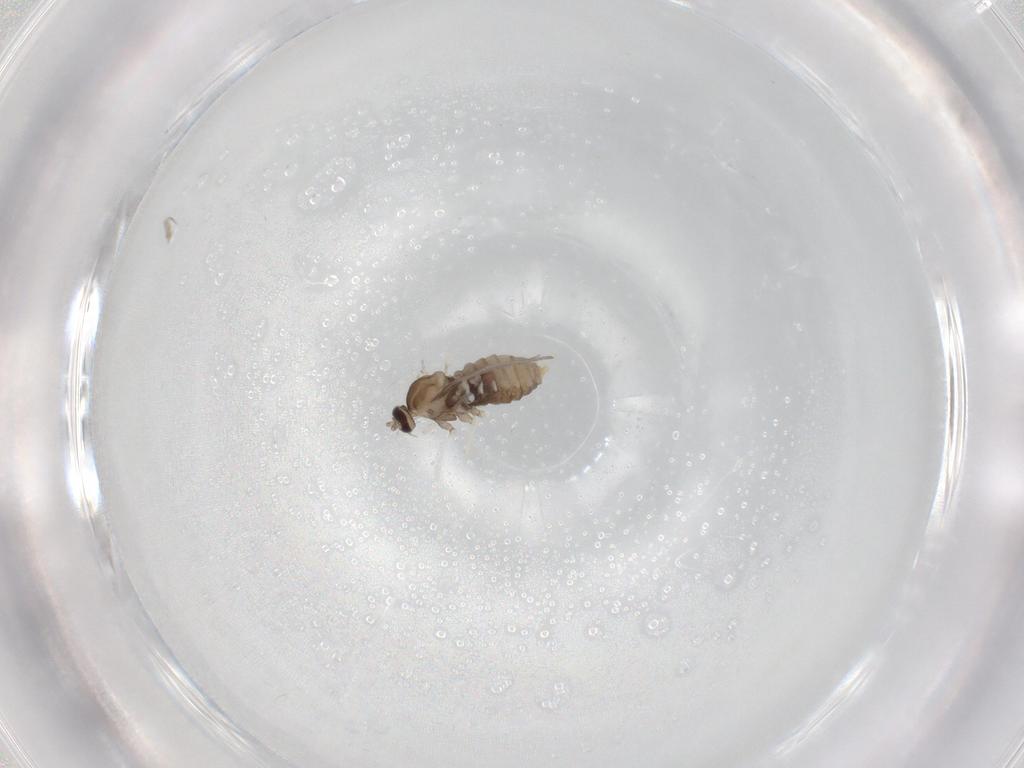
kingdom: Animalia
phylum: Arthropoda
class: Insecta
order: Diptera
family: Cecidomyiidae
